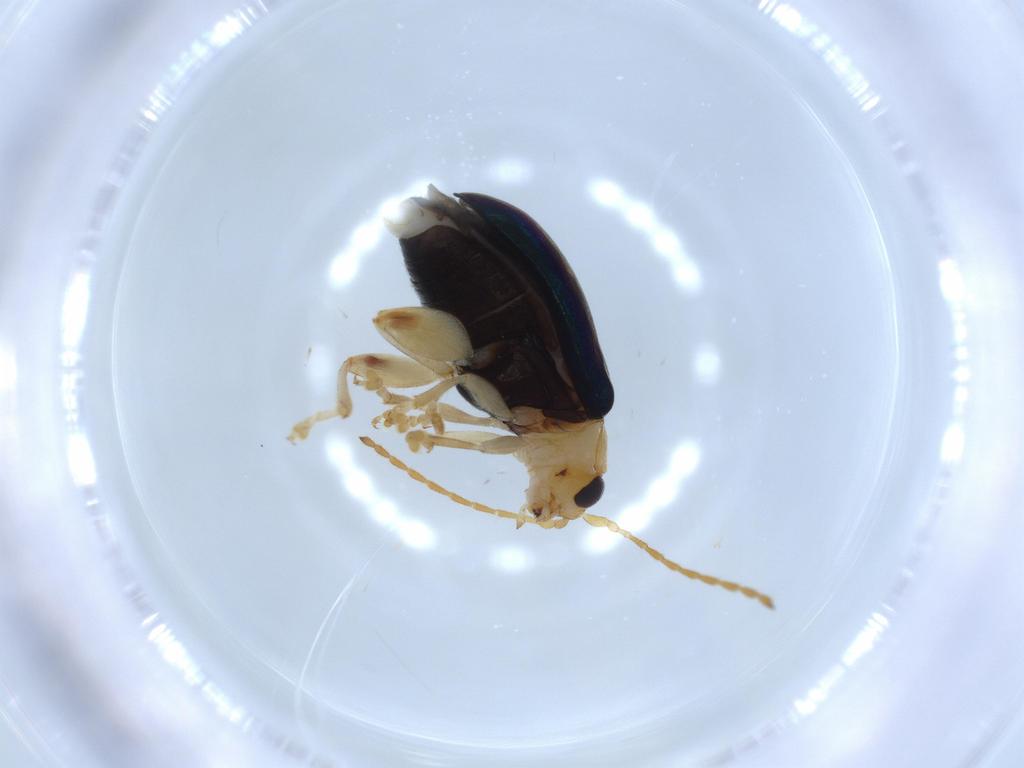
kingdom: Animalia
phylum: Arthropoda
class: Insecta
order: Coleoptera
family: Chrysomelidae
